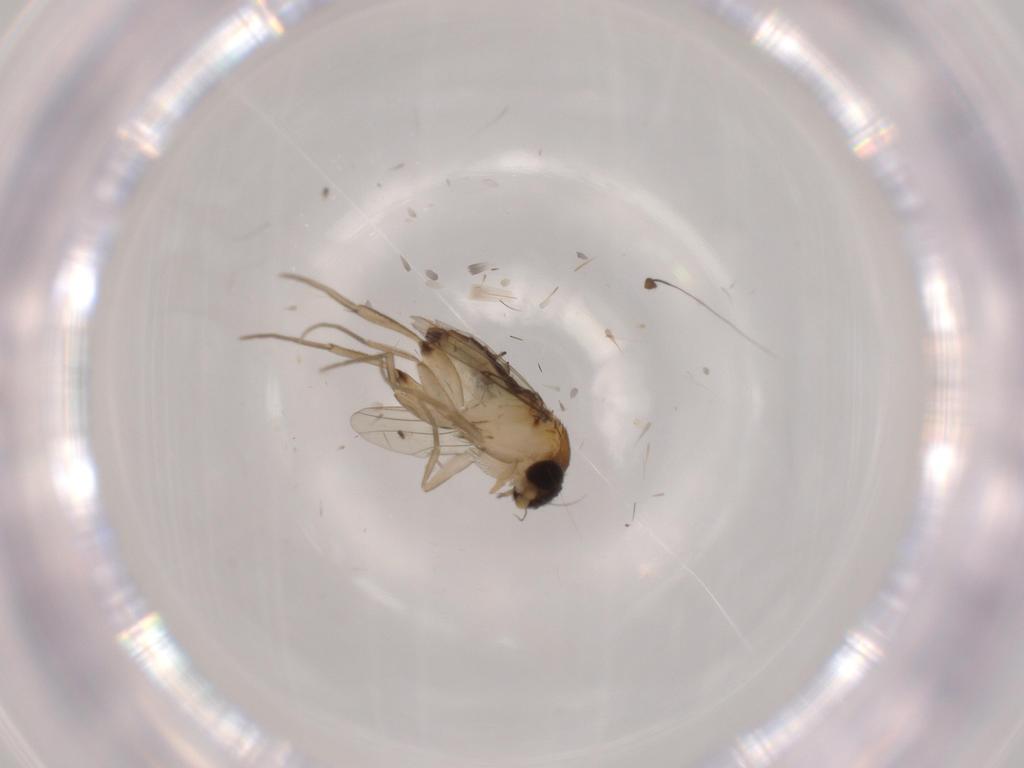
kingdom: Animalia
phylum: Arthropoda
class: Insecta
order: Diptera
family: Phoridae
